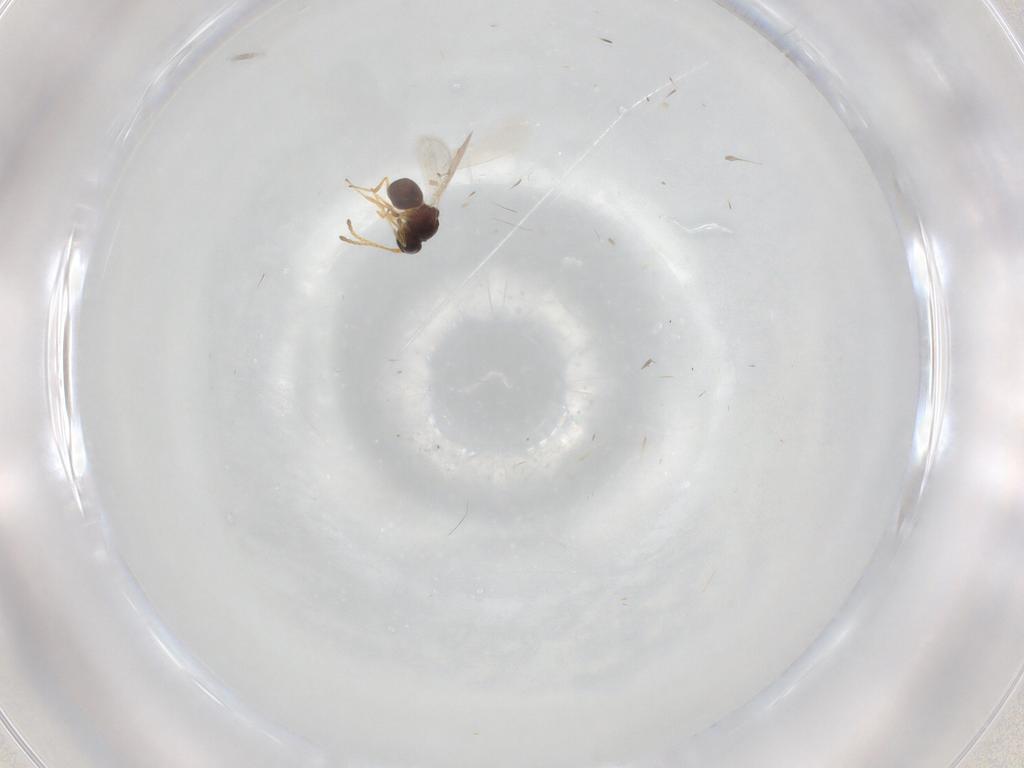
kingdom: Animalia
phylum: Arthropoda
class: Insecta
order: Hymenoptera
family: Figitidae
